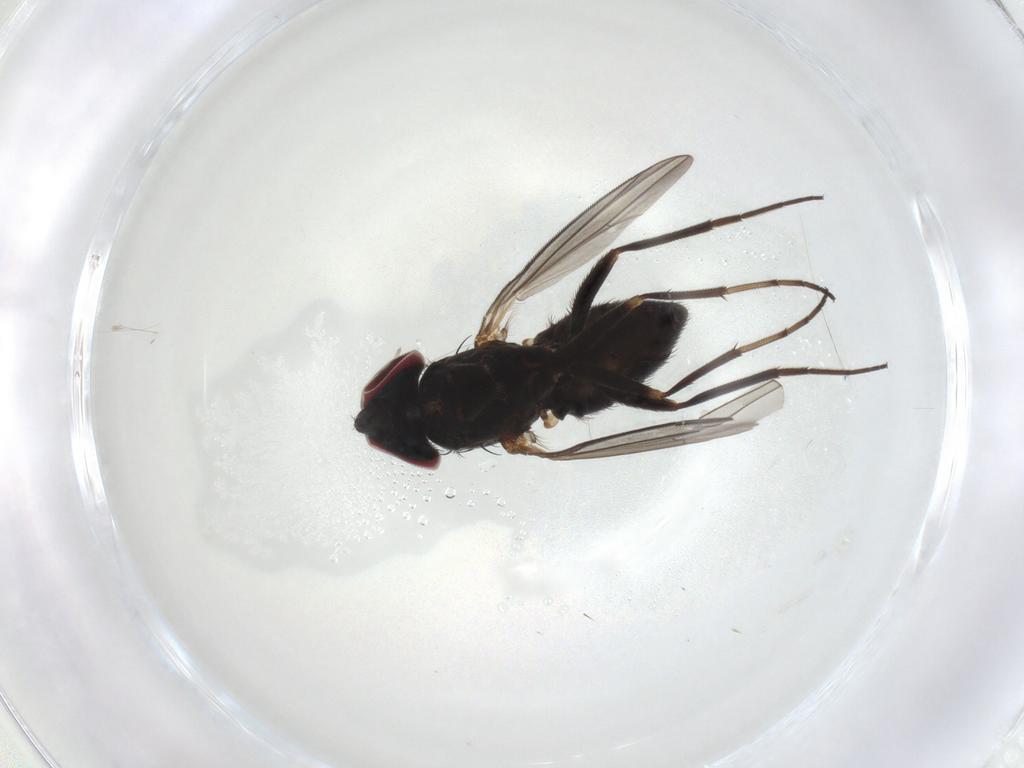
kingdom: Animalia
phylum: Arthropoda
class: Insecta
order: Diptera
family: Dolichopodidae
